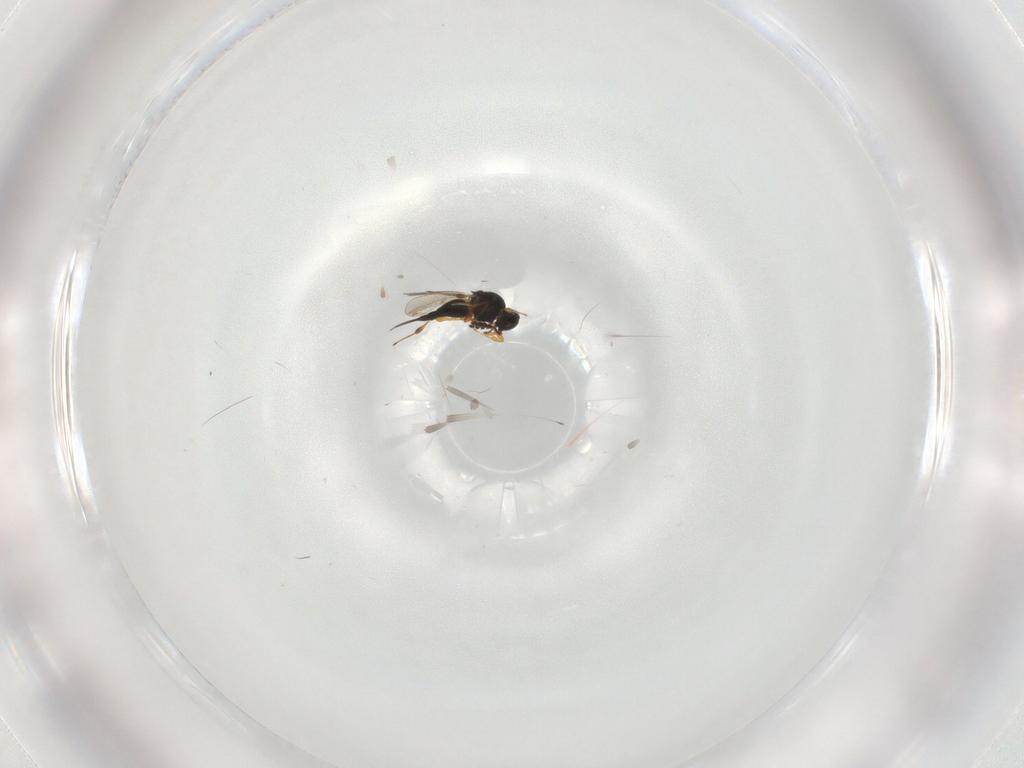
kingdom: Animalia
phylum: Arthropoda
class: Insecta
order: Hymenoptera
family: Platygastridae
